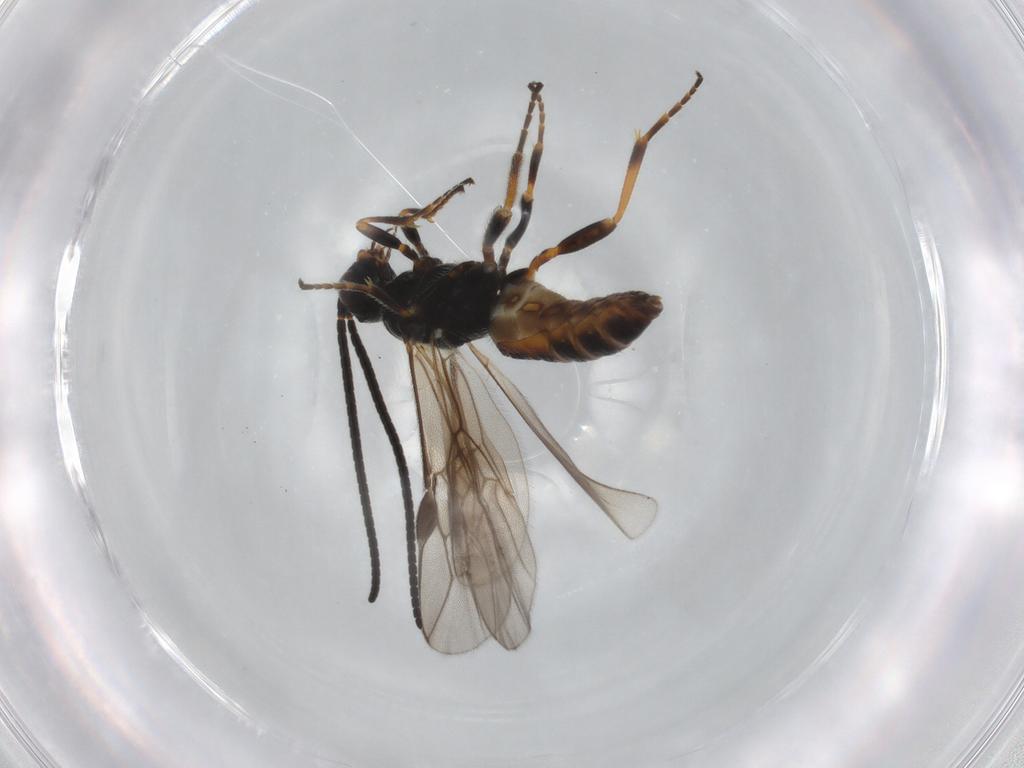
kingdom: Animalia
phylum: Arthropoda
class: Insecta
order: Hymenoptera
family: Braconidae
